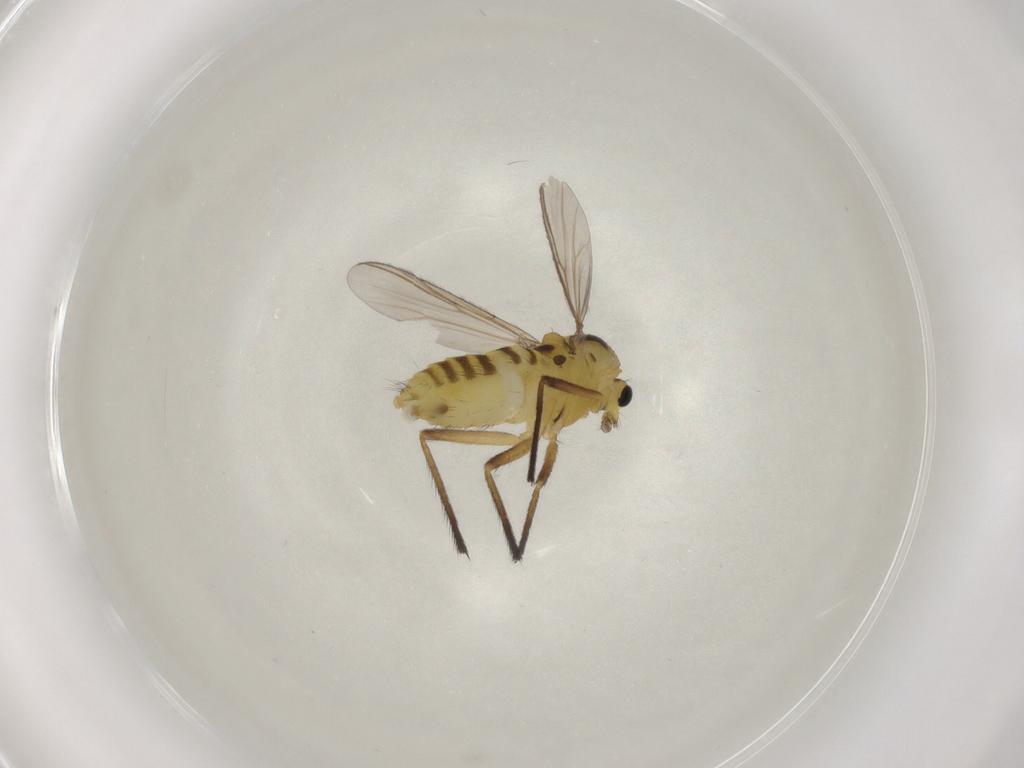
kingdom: Animalia
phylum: Arthropoda
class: Insecta
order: Diptera
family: Chironomidae
